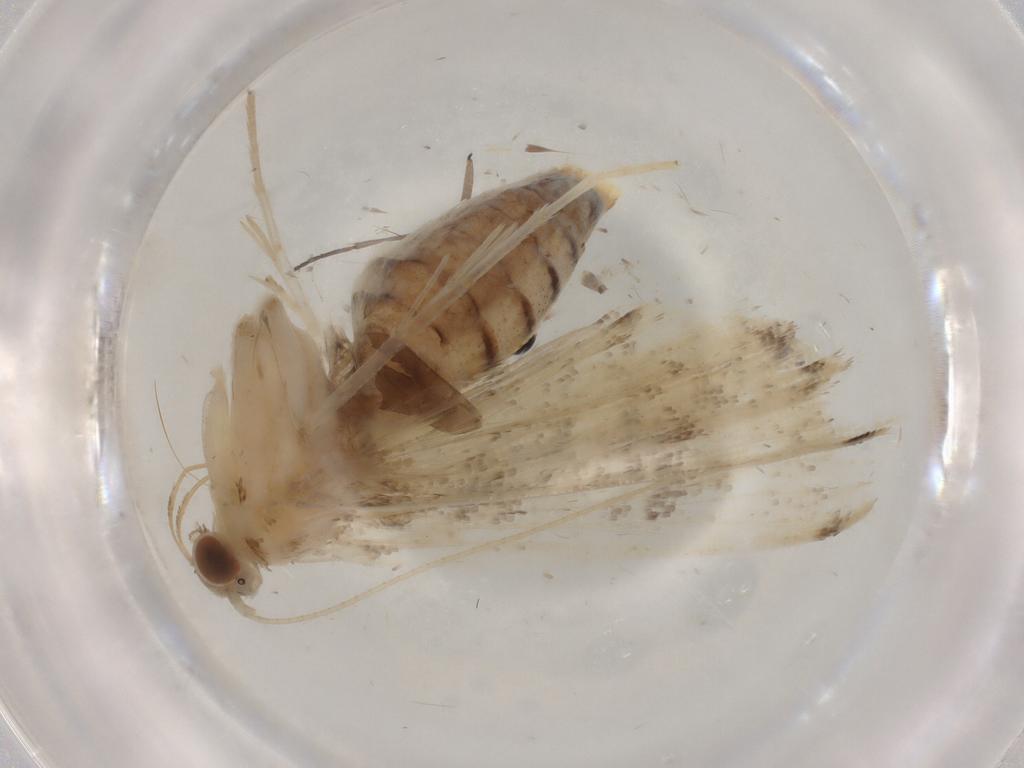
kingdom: Animalia
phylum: Arthropoda
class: Insecta
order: Lepidoptera
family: Crambidae
